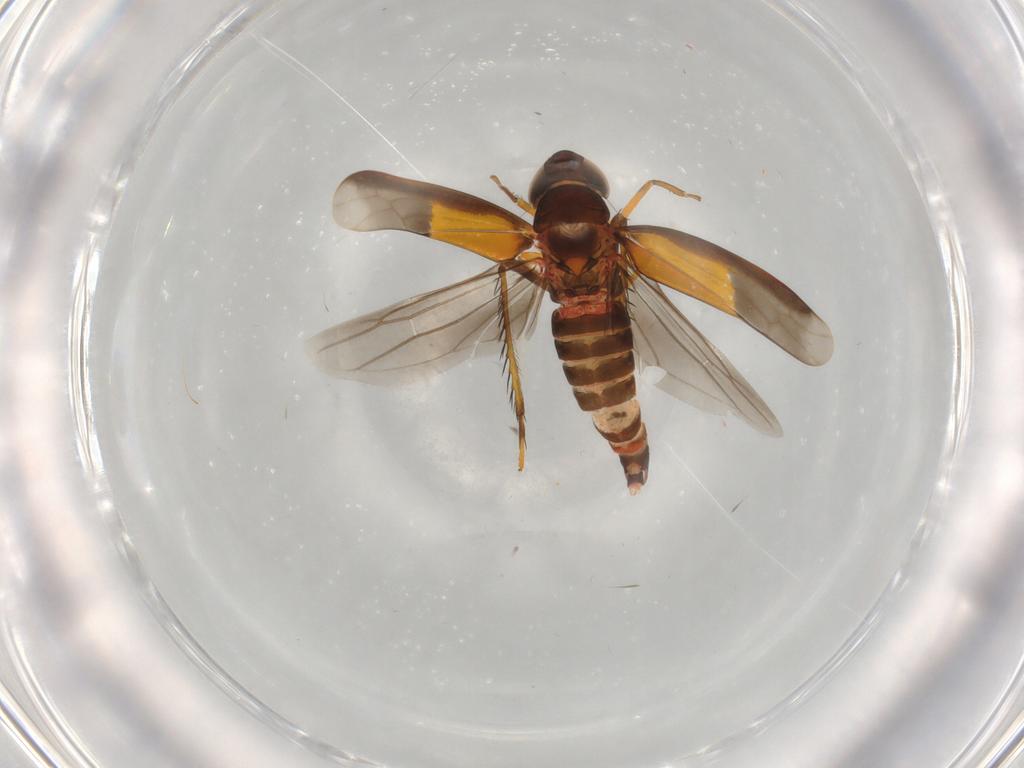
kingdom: Animalia
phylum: Arthropoda
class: Insecta
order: Hemiptera
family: Cicadellidae
